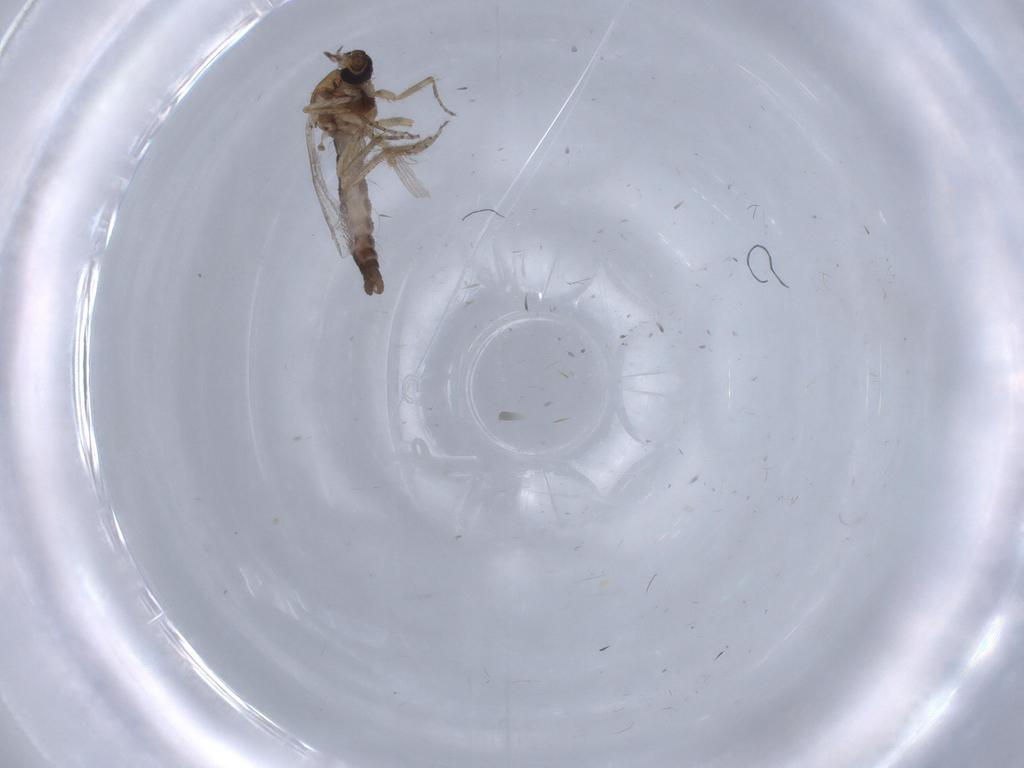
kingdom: Animalia
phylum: Arthropoda
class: Insecta
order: Diptera
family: Ceratopogonidae
